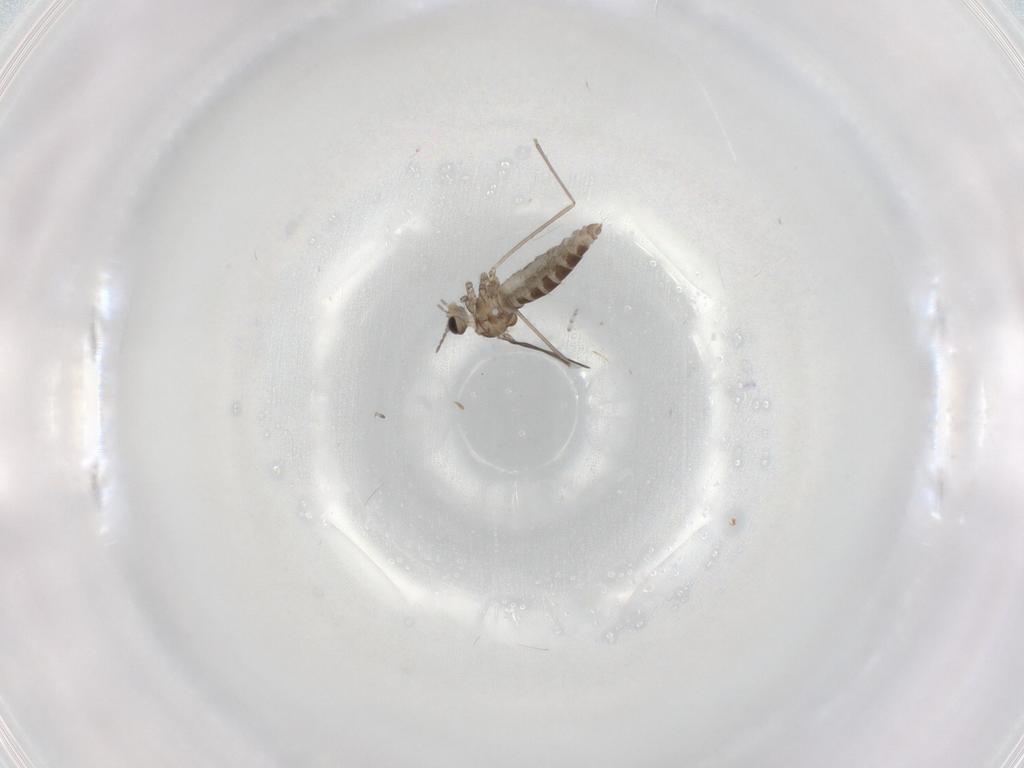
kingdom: Animalia
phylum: Arthropoda
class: Insecta
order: Diptera
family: Cecidomyiidae
